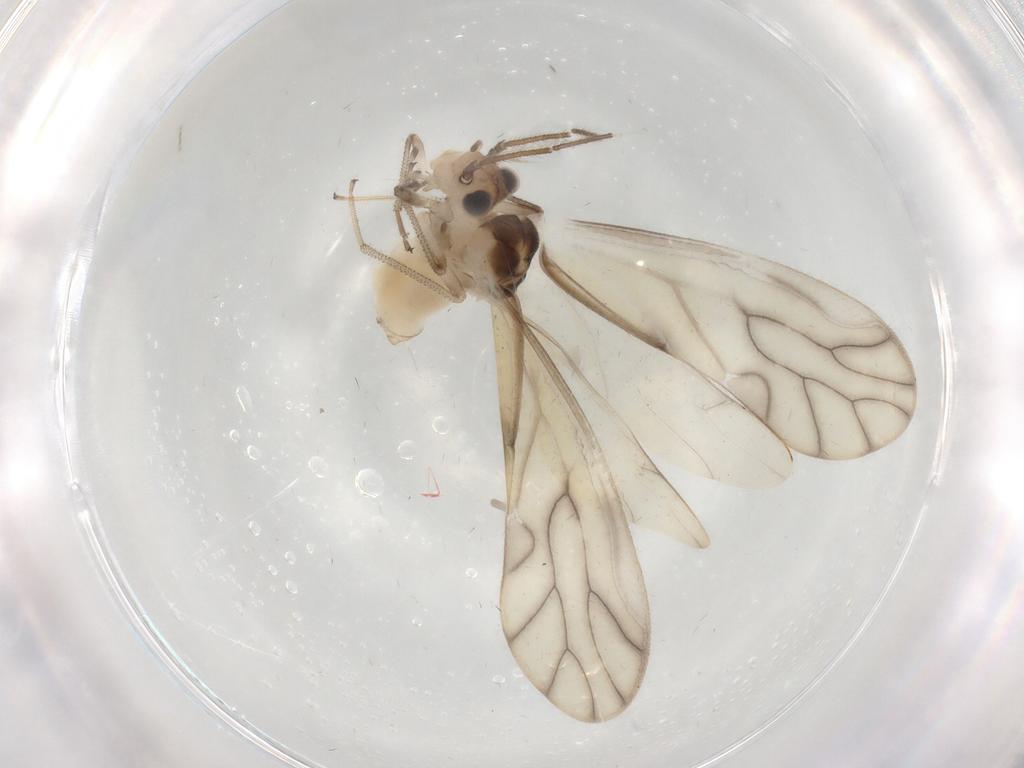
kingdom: Animalia
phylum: Arthropoda
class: Insecta
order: Psocodea
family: Caeciliusidae
